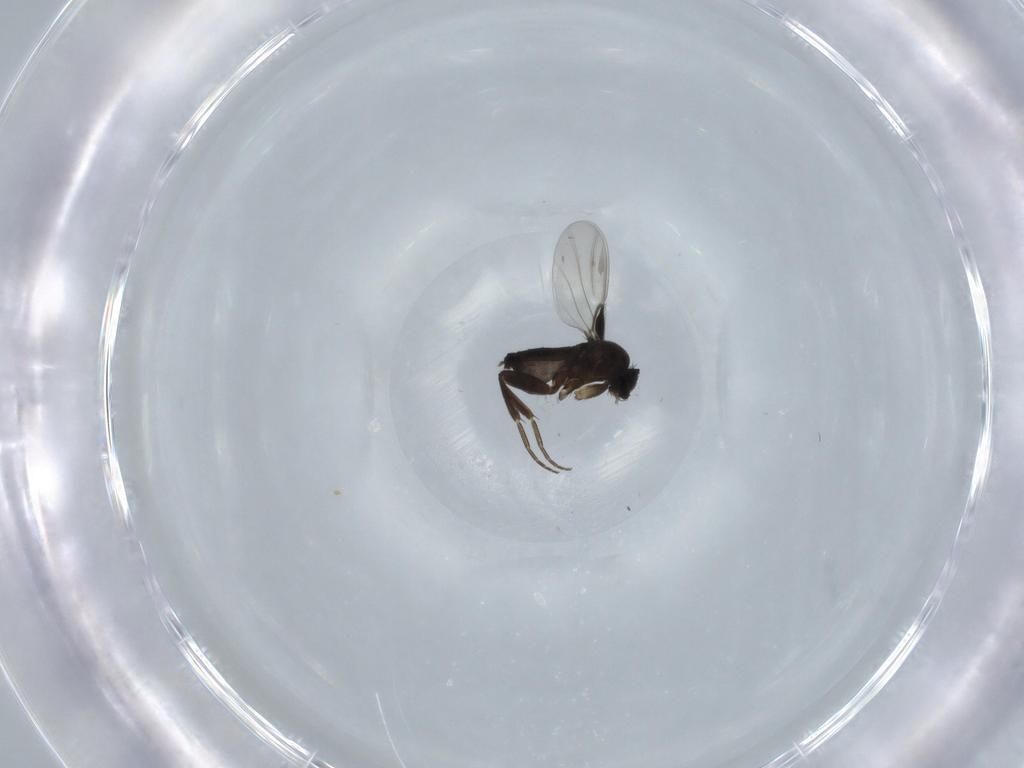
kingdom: Animalia
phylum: Arthropoda
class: Insecta
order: Diptera
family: Phoridae
